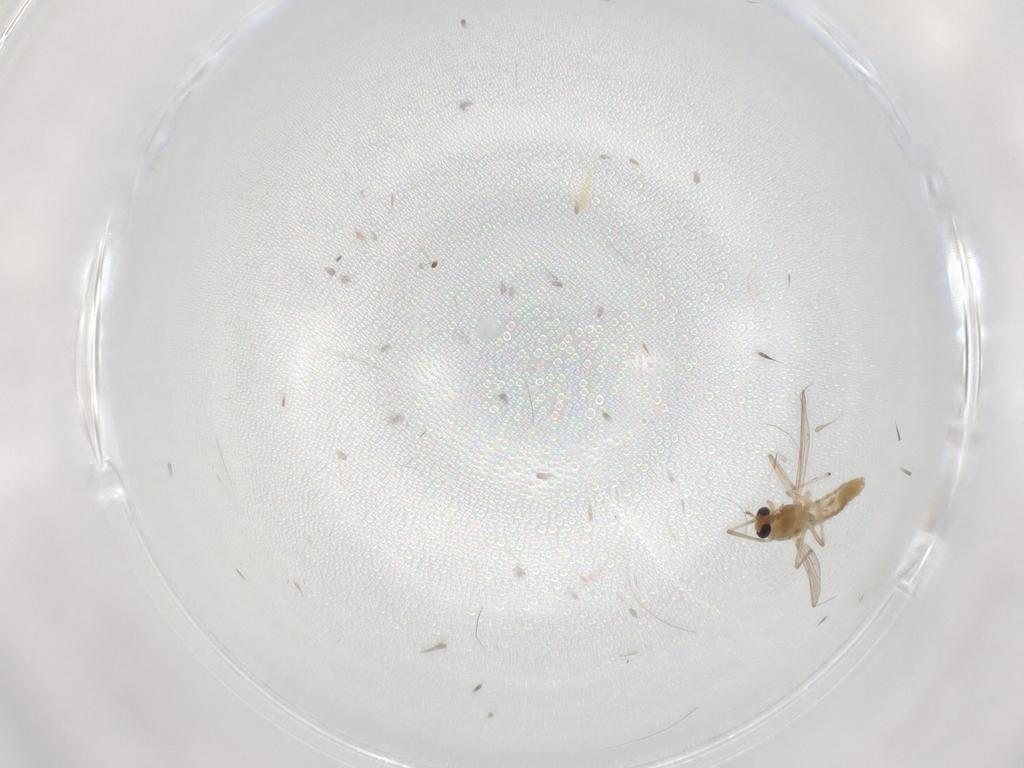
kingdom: Animalia
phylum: Arthropoda
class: Insecta
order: Diptera
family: Chironomidae
